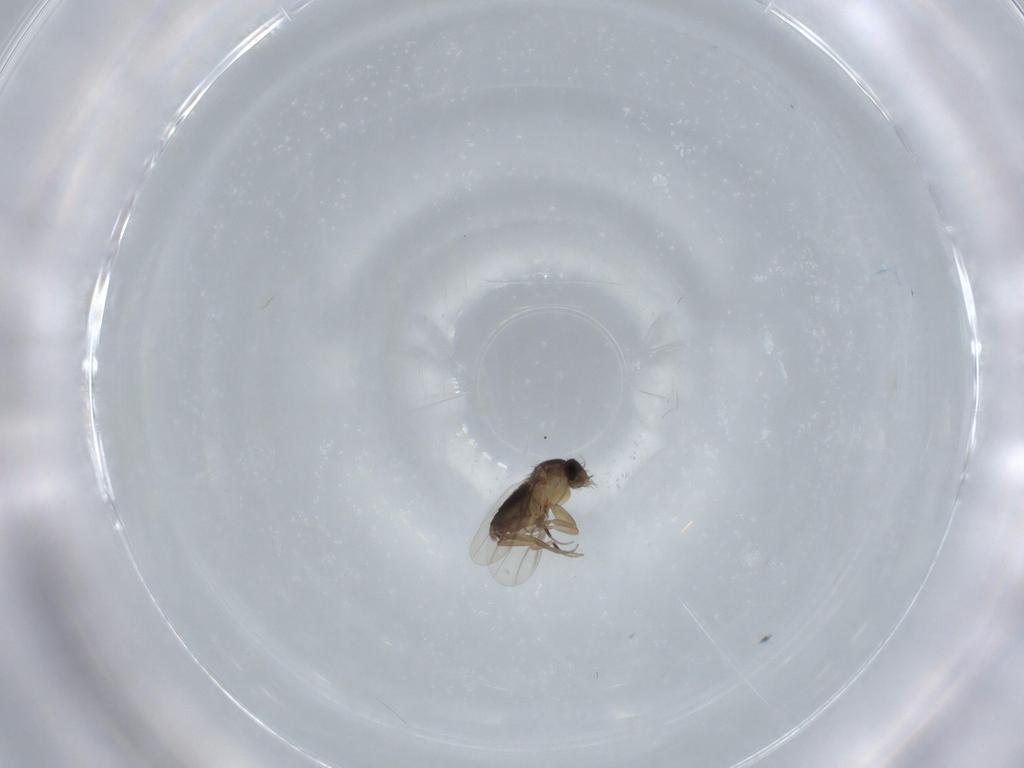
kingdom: Animalia
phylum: Arthropoda
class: Insecta
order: Diptera
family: Phoridae
